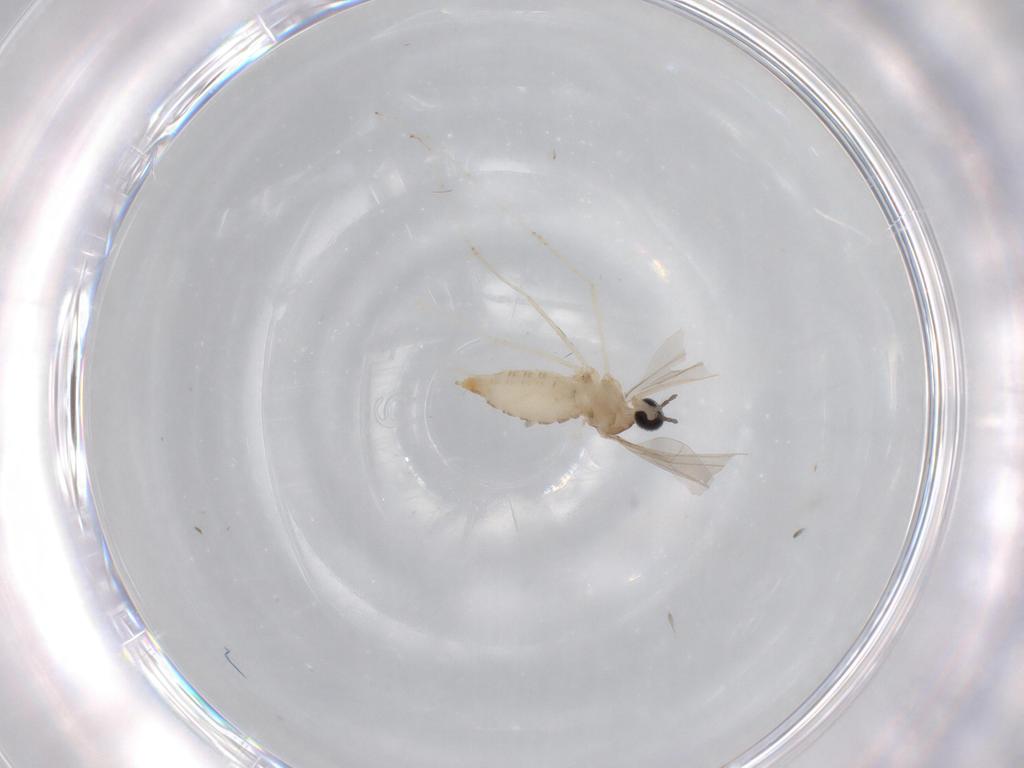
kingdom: Animalia
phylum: Arthropoda
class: Insecta
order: Diptera
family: Cecidomyiidae
